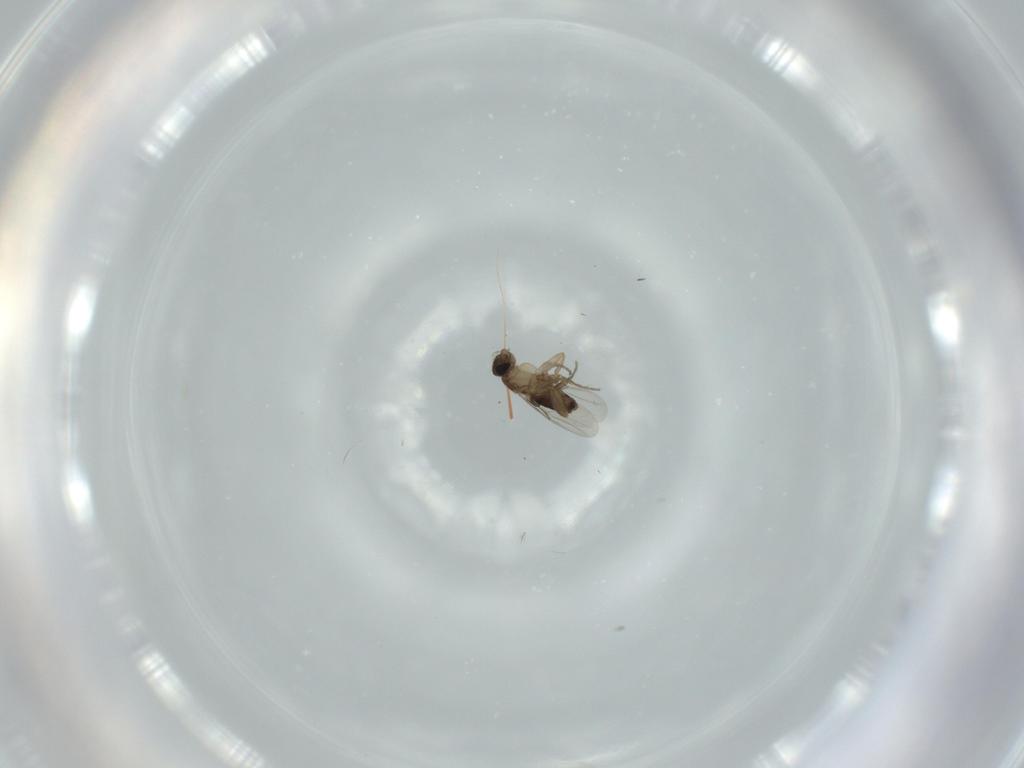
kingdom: Animalia
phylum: Arthropoda
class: Insecta
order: Diptera
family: Phoridae
